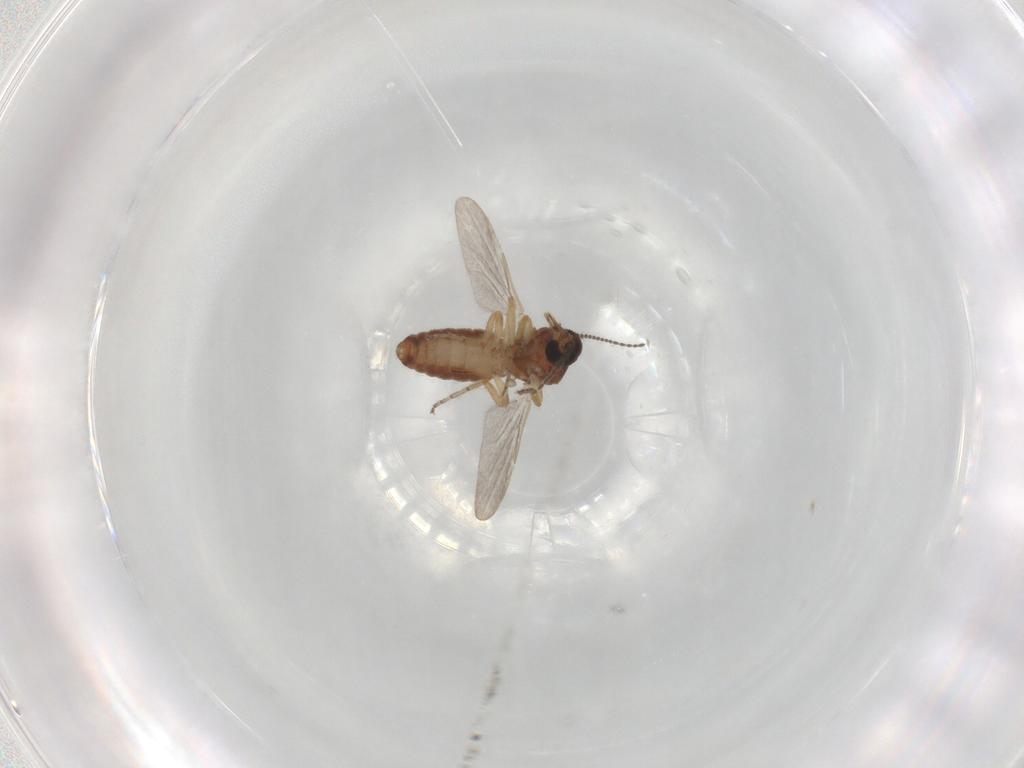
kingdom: Animalia
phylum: Arthropoda
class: Insecta
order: Diptera
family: Ceratopogonidae
